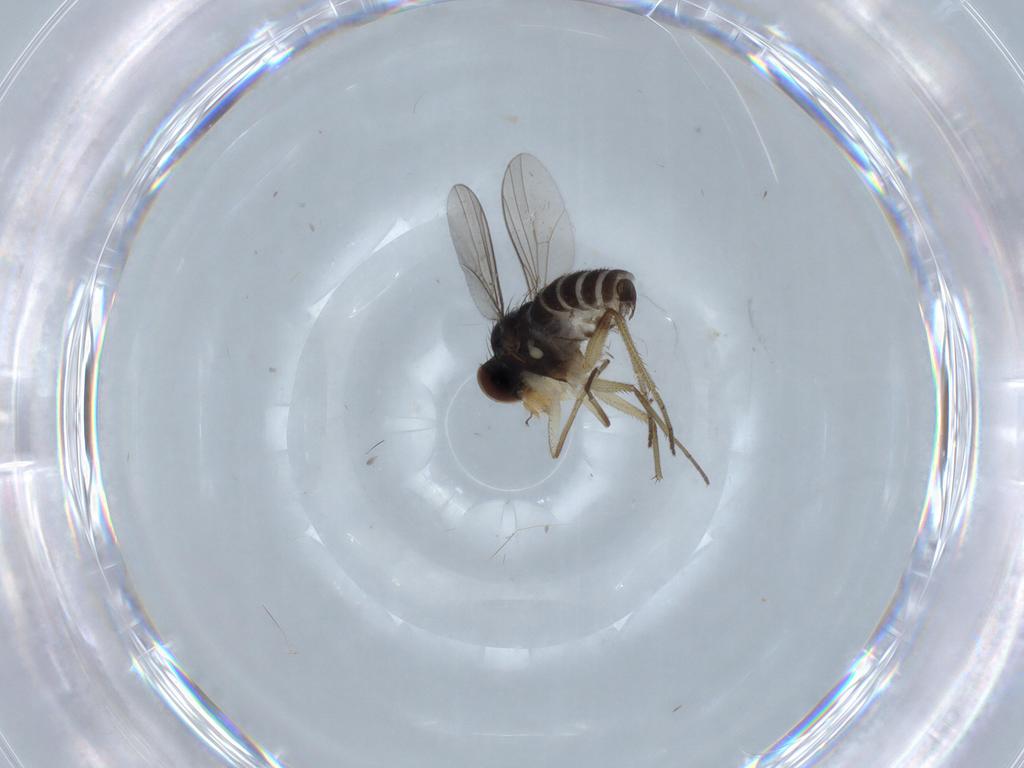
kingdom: Animalia
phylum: Arthropoda
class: Insecta
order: Diptera
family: Dolichopodidae
